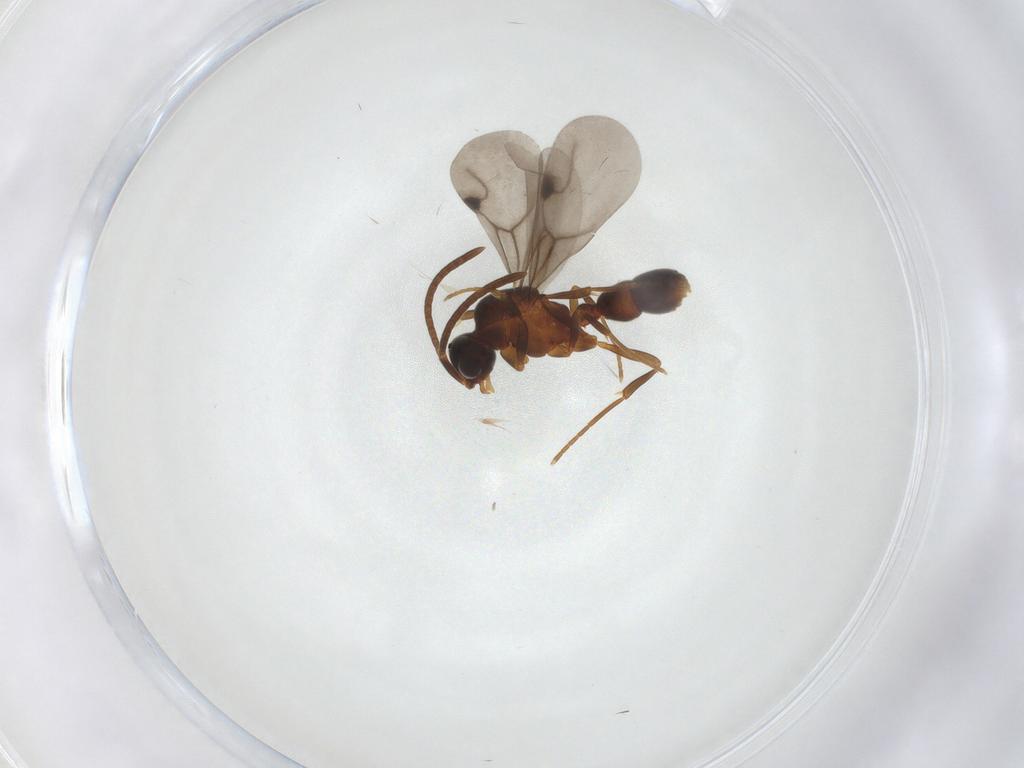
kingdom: Animalia
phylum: Arthropoda
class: Insecta
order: Hymenoptera
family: Formicidae
